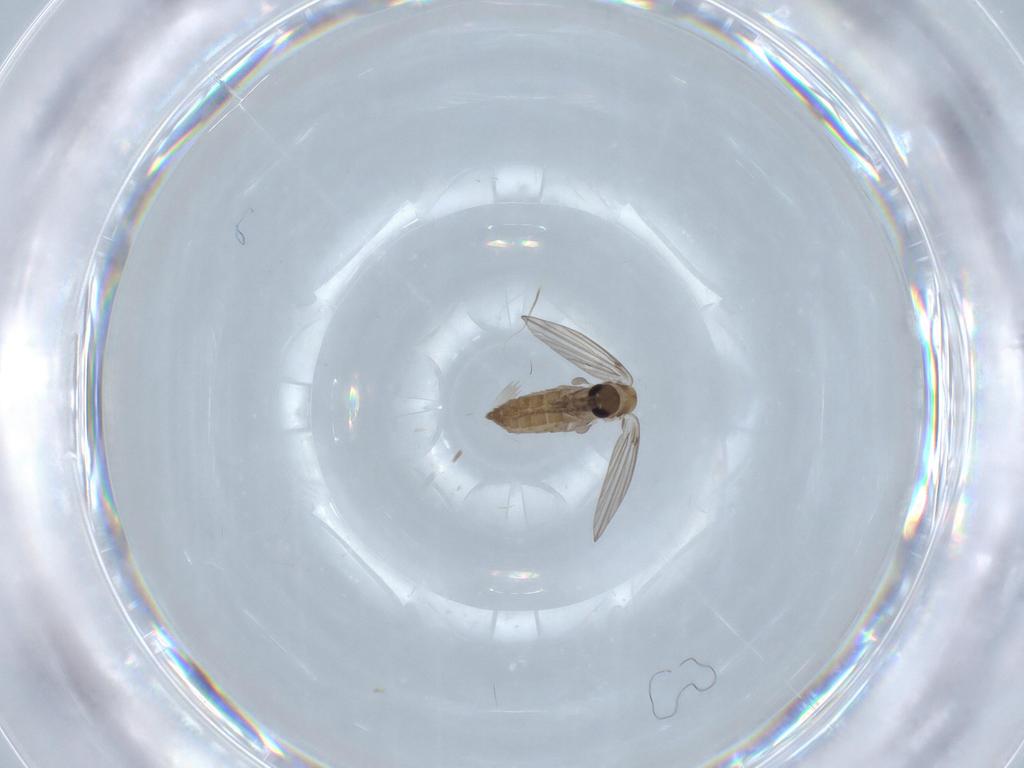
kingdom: Animalia
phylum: Arthropoda
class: Insecta
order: Diptera
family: Psychodidae
